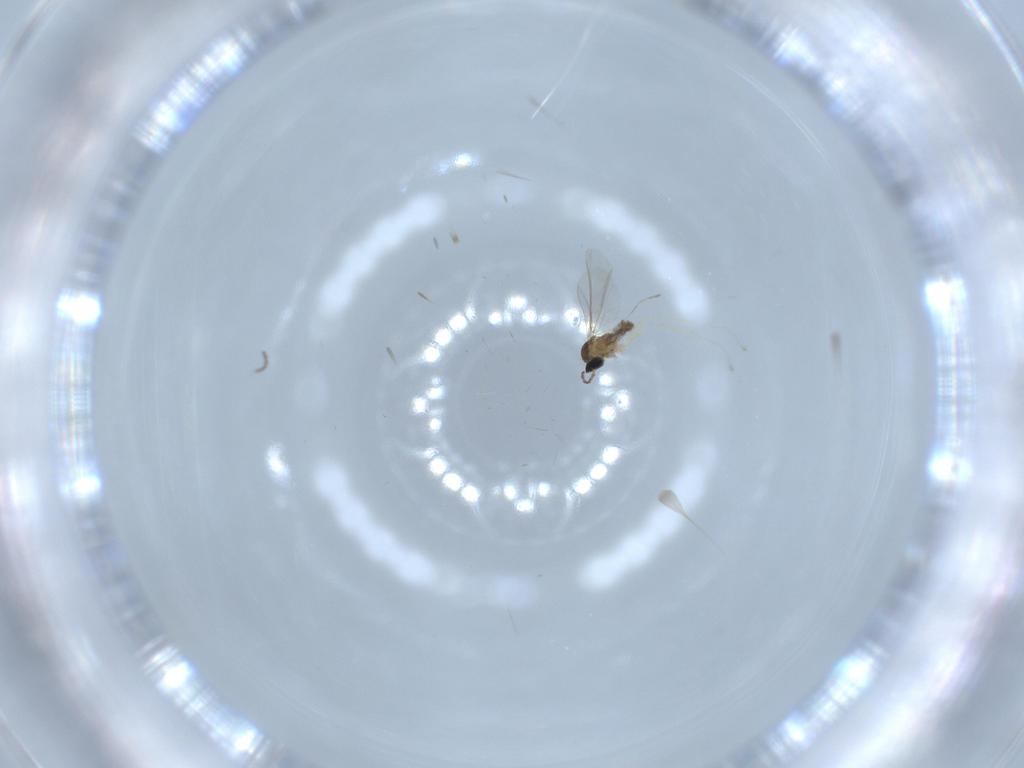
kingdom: Animalia
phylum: Arthropoda
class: Insecta
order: Diptera
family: Cecidomyiidae
